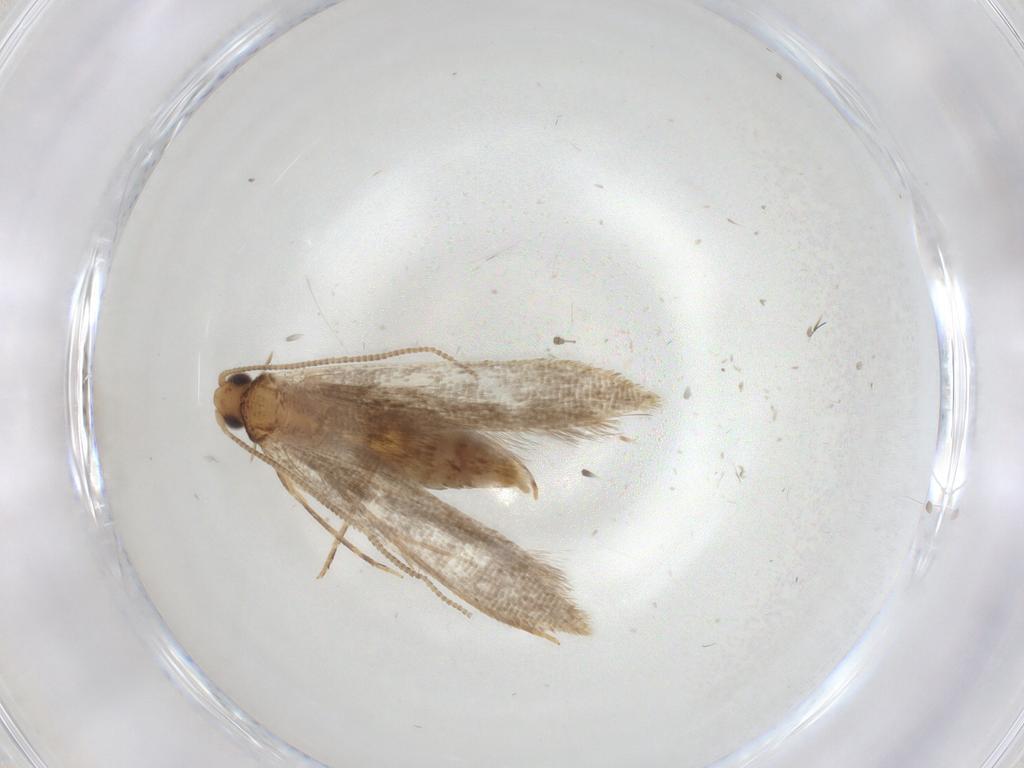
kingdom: Animalia
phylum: Arthropoda
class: Insecta
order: Lepidoptera
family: Tineidae
